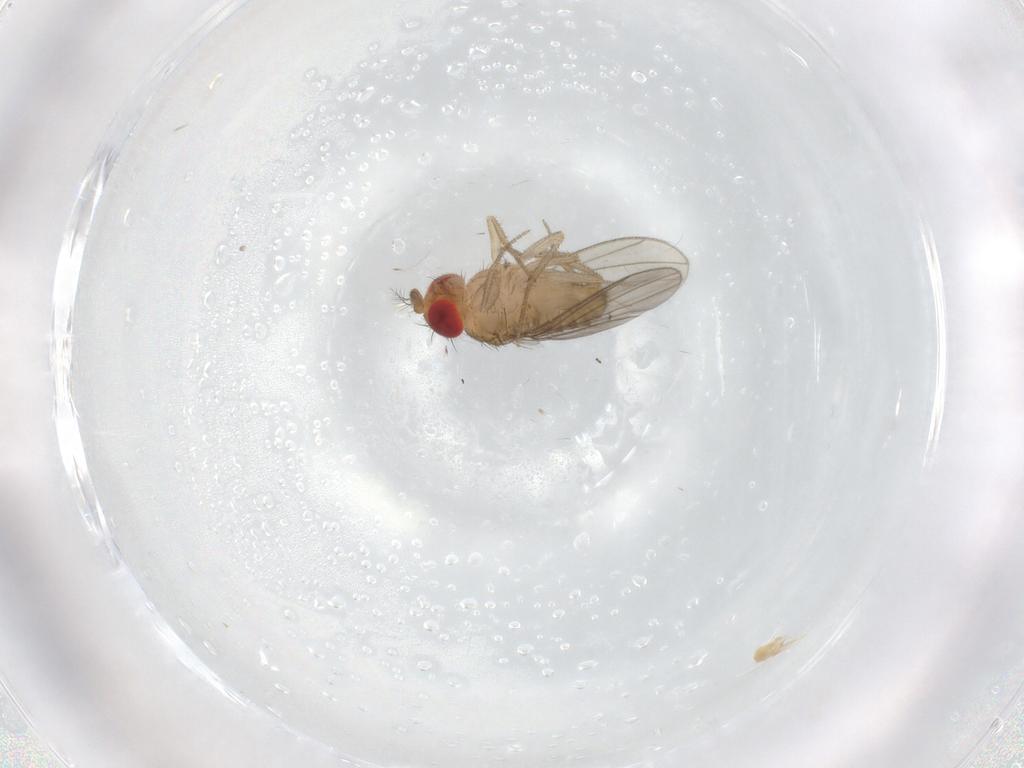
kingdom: Animalia
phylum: Arthropoda
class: Insecta
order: Diptera
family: Drosophilidae
